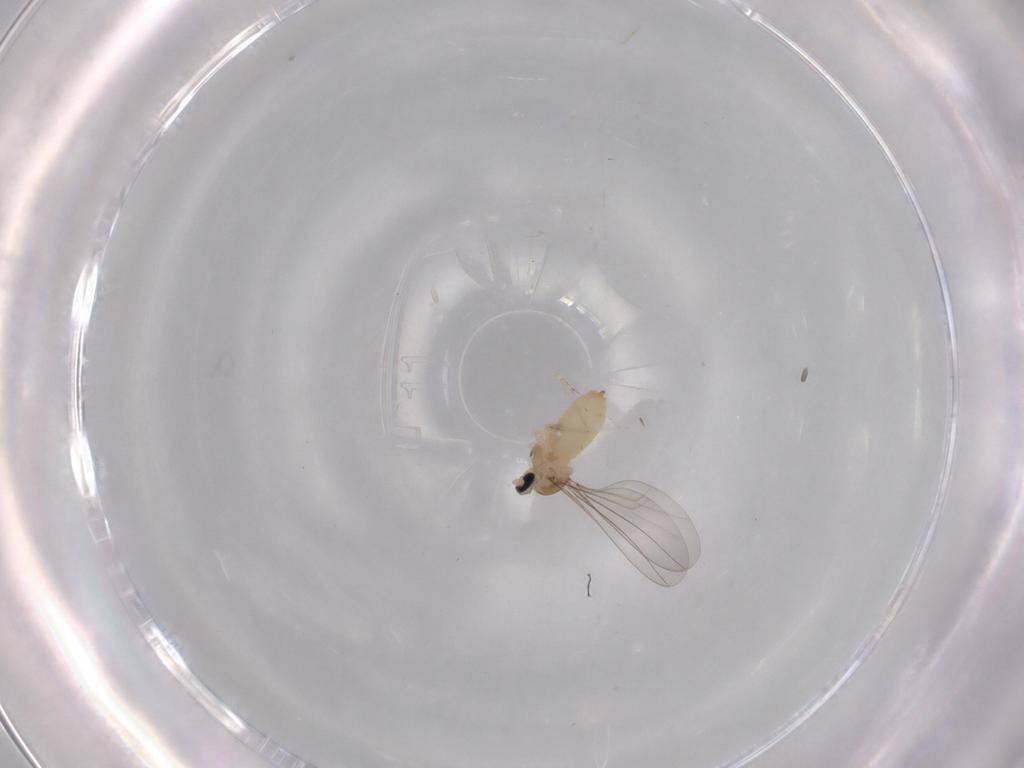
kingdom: Animalia
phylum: Arthropoda
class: Insecta
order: Diptera
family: Cecidomyiidae
